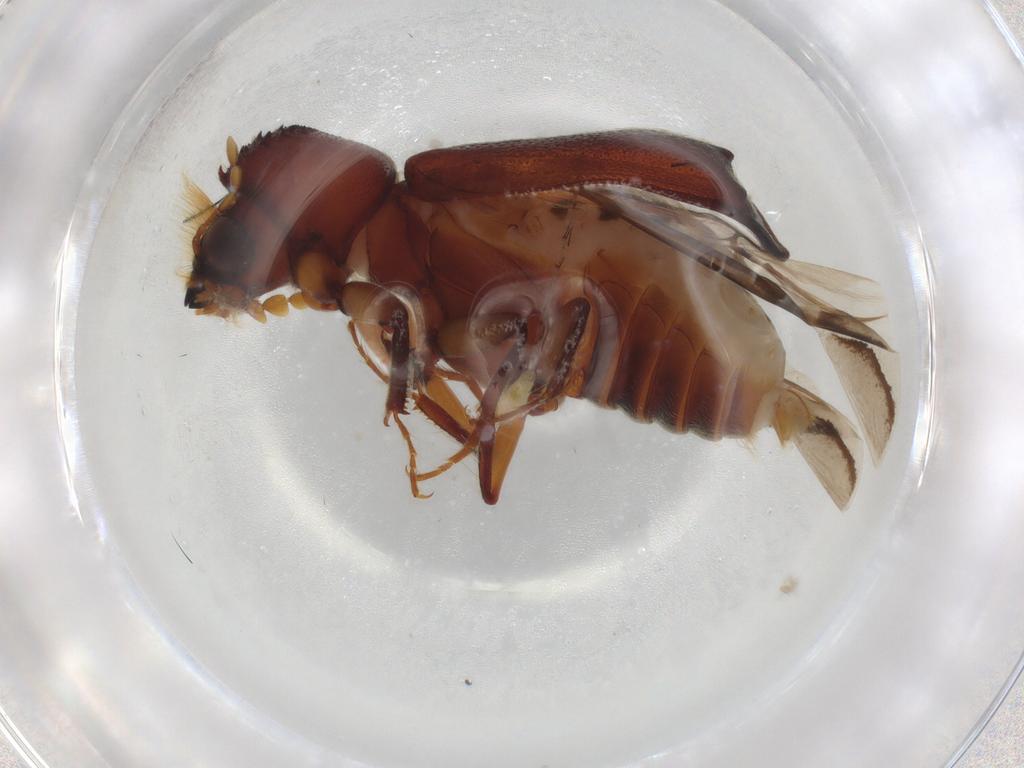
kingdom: Animalia
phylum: Arthropoda
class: Insecta
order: Coleoptera
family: Bostrichidae
